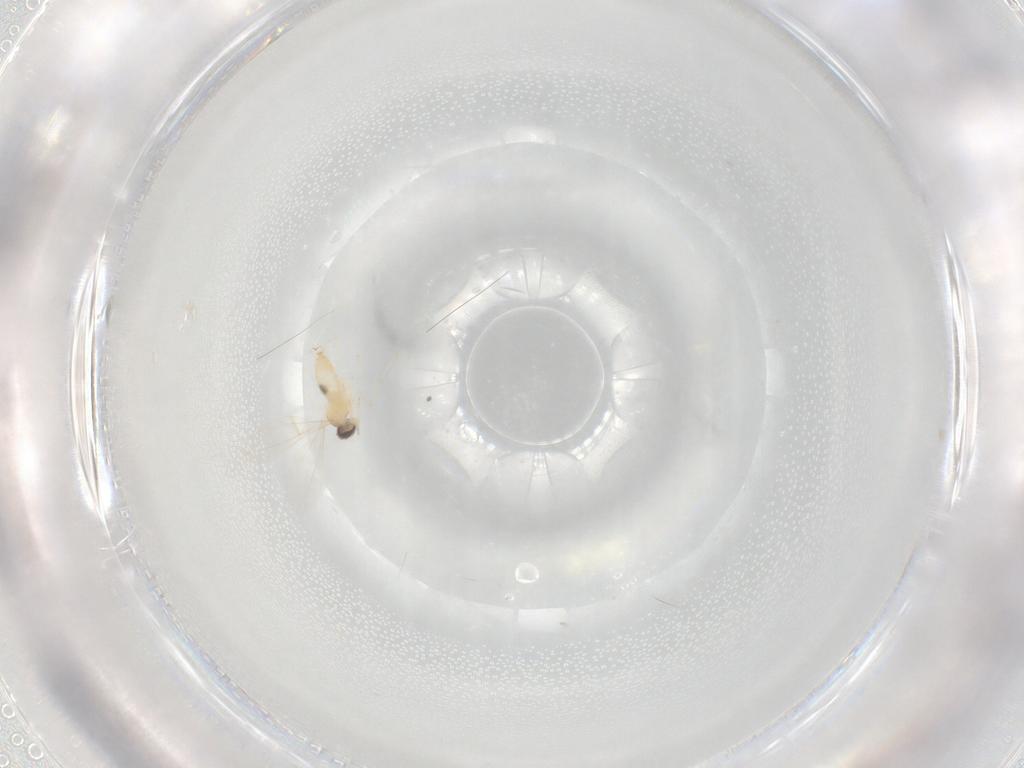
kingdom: Animalia
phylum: Arthropoda
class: Insecta
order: Diptera
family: Cecidomyiidae
